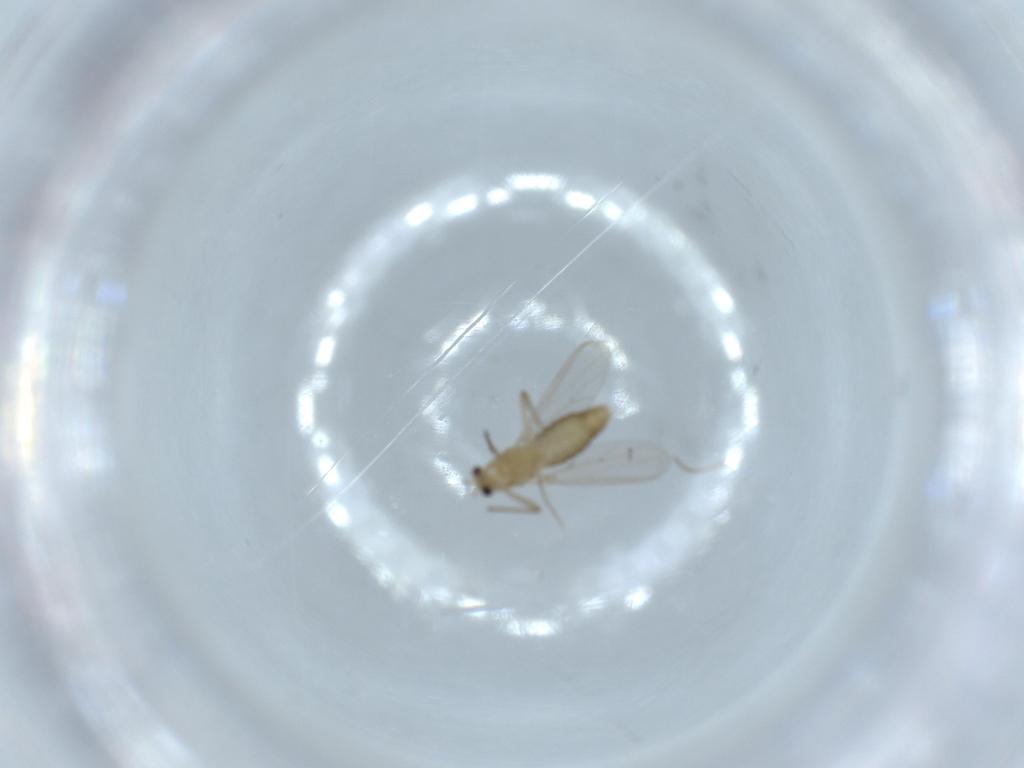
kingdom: Animalia
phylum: Arthropoda
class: Insecta
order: Diptera
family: Chironomidae
